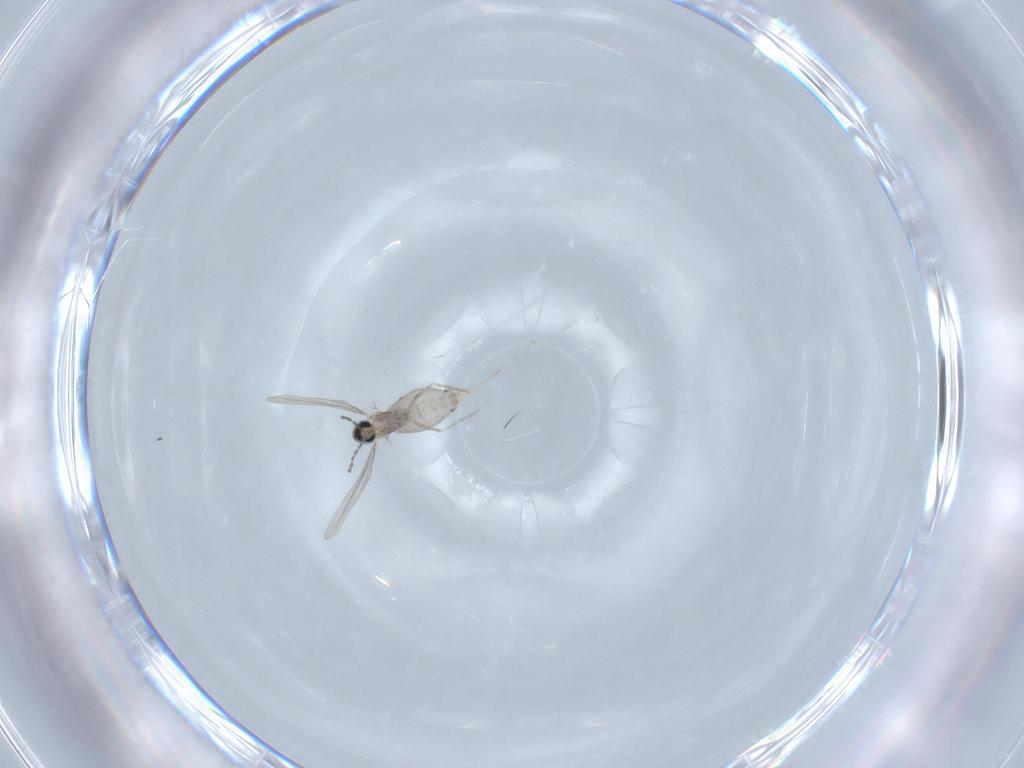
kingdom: Animalia
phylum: Arthropoda
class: Insecta
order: Diptera
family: Cecidomyiidae
